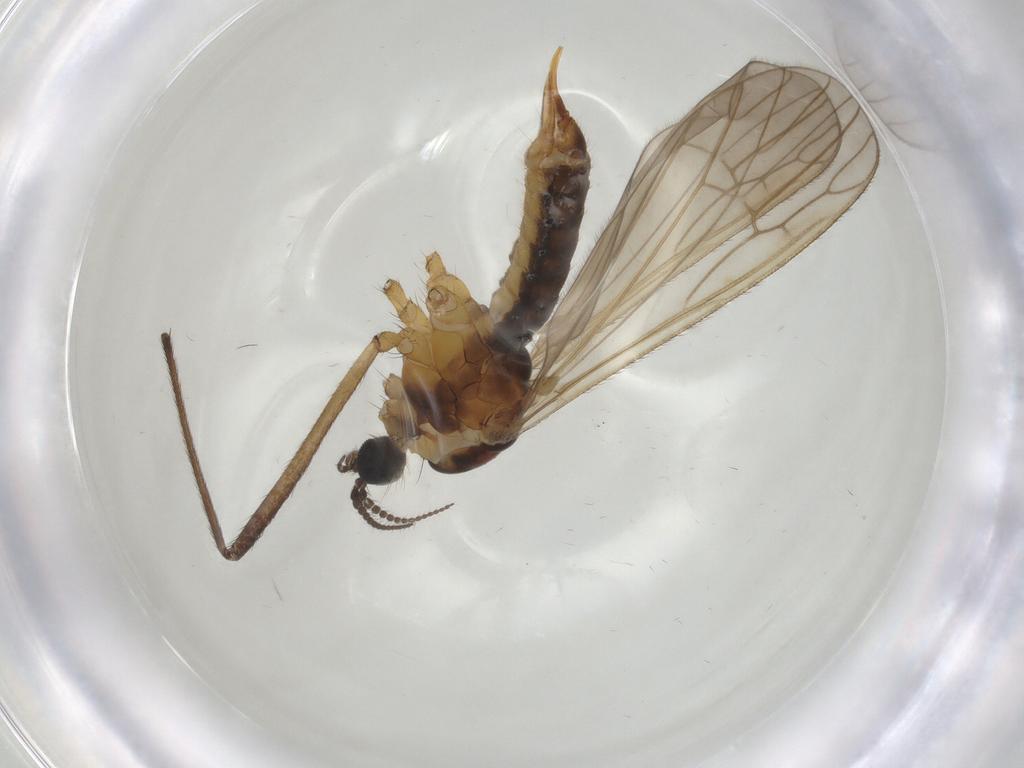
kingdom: Animalia
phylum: Arthropoda
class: Insecta
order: Diptera
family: Agromyzidae
